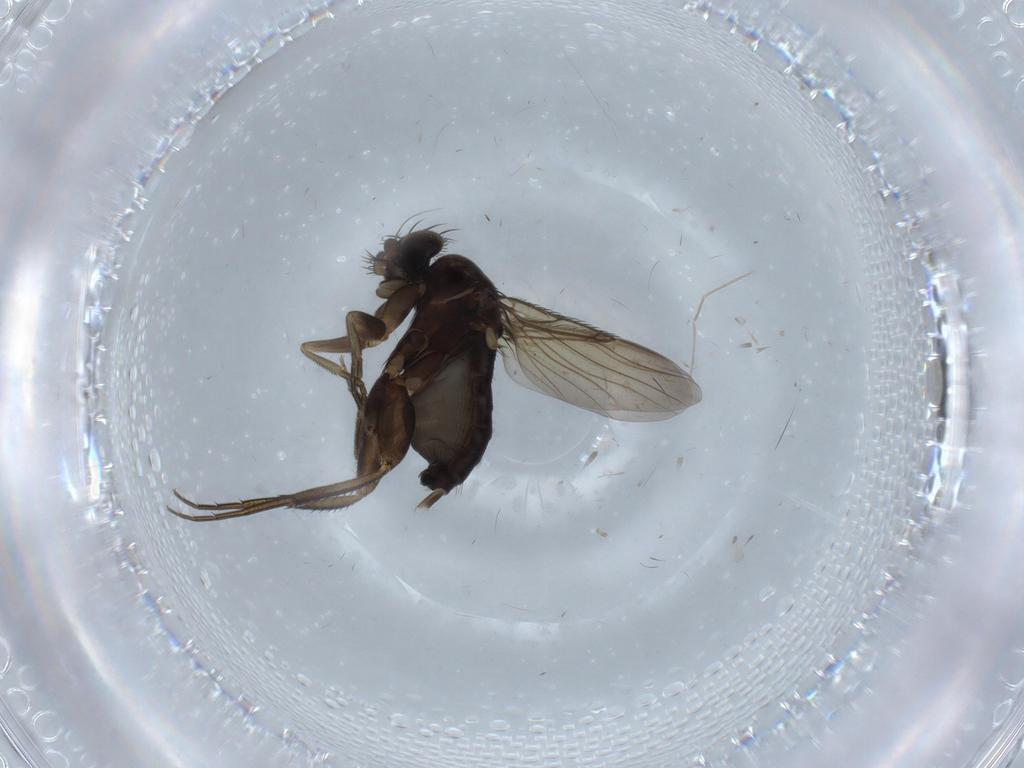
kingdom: Animalia
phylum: Arthropoda
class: Insecta
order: Diptera
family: Phoridae
